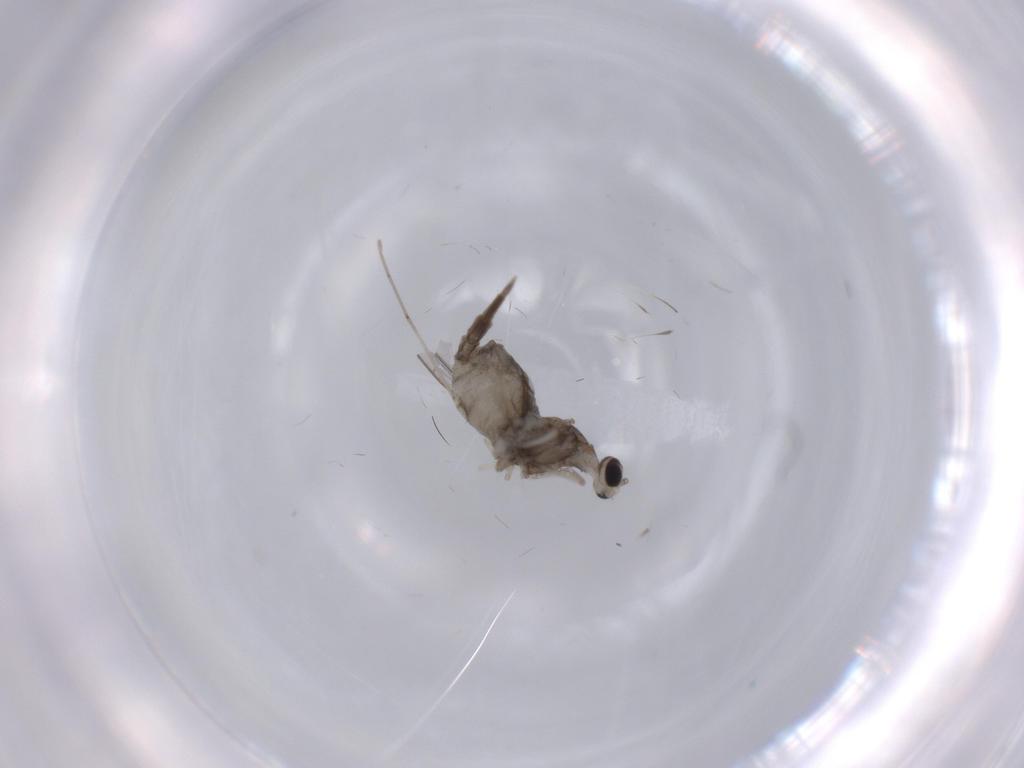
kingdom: Animalia
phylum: Arthropoda
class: Insecta
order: Diptera
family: Cecidomyiidae
